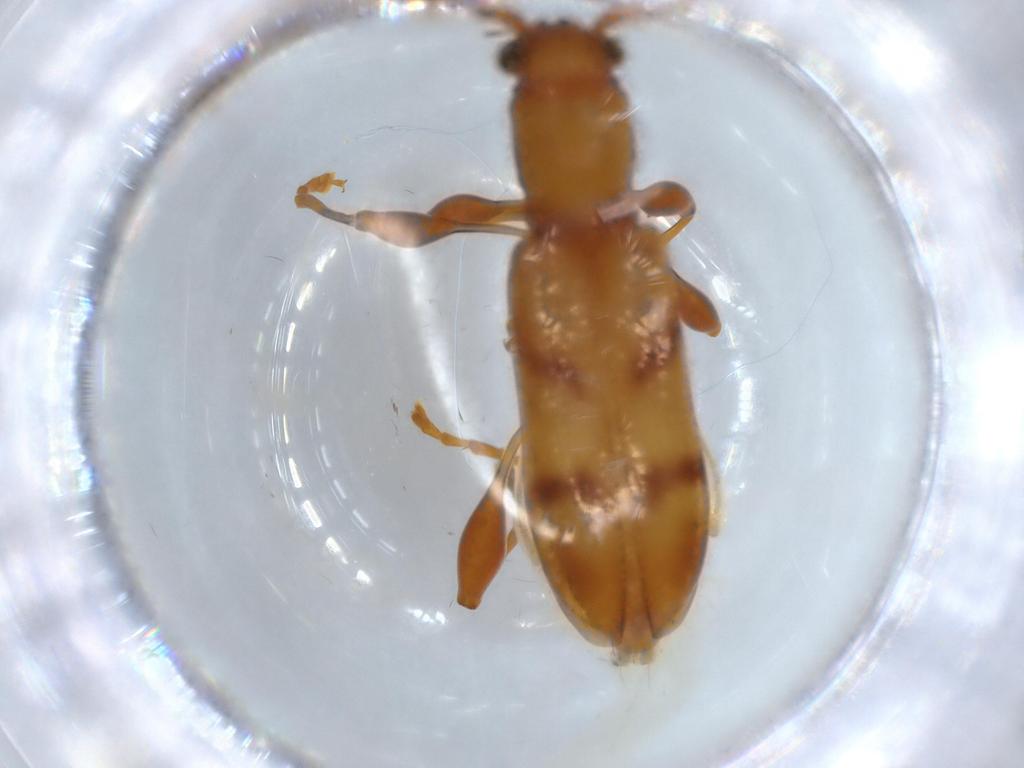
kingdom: Animalia
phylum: Arthropoda
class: Insecta
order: Coleoptera
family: Cerambycidae
